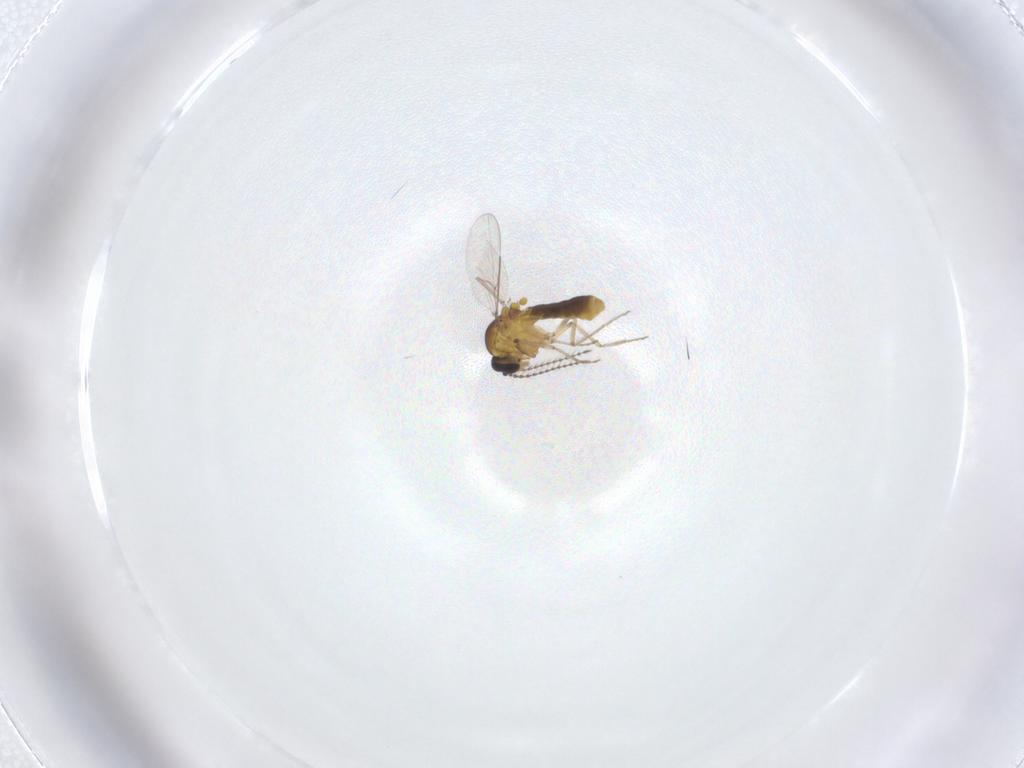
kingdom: Animalia
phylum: Arthropoda
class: Insecta
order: Diptera
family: Ceratopogonidae
